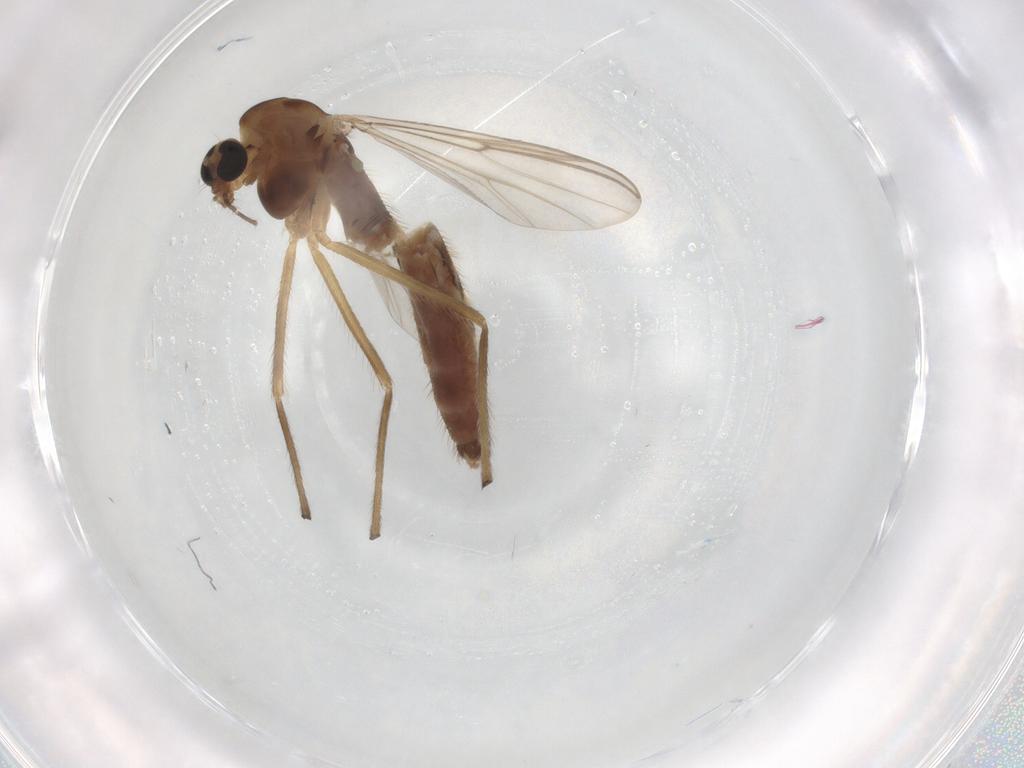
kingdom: Animalia
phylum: Arthropoda
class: Insecta
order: Diptera
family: Chironomidae
